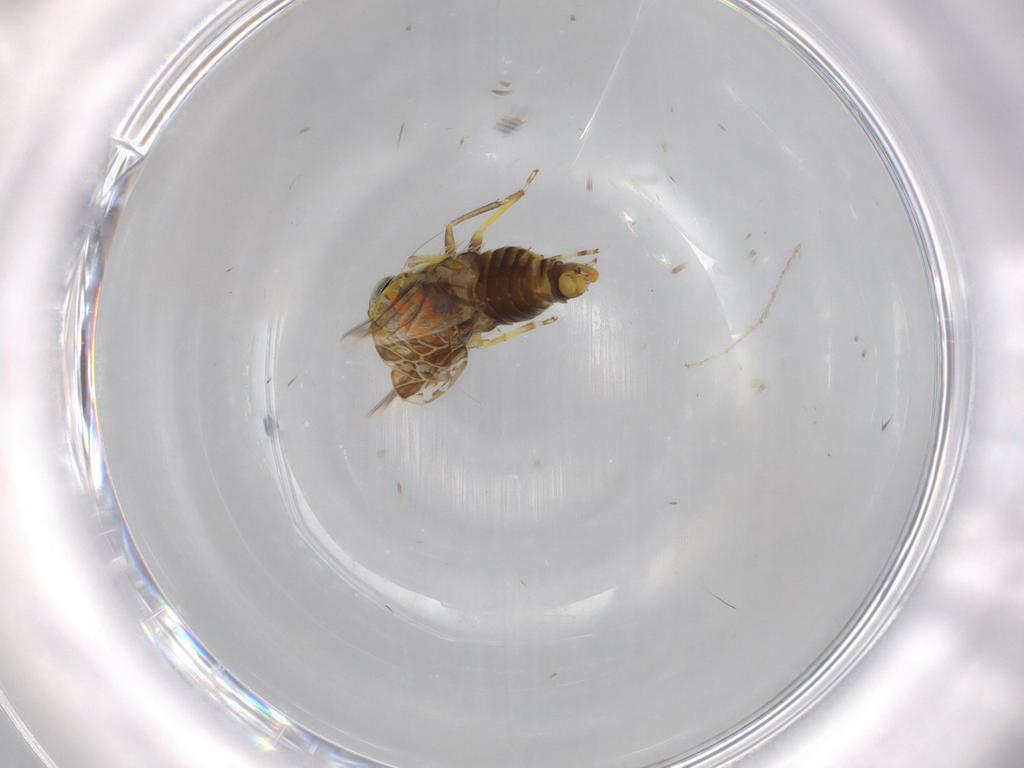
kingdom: Animalia
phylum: Arthropoda
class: Insecta
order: Hemiptera
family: Cicadellidae
